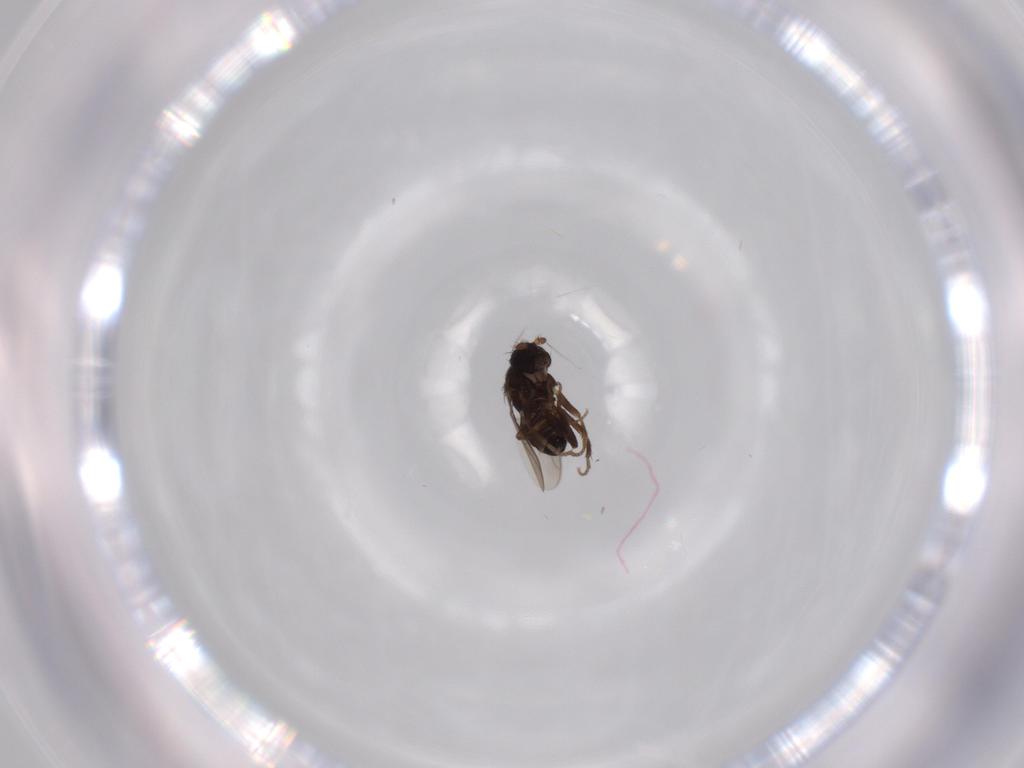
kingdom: Animalia
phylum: Arthropoda
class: Insecta
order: Diptera
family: Sphaeroceridae
